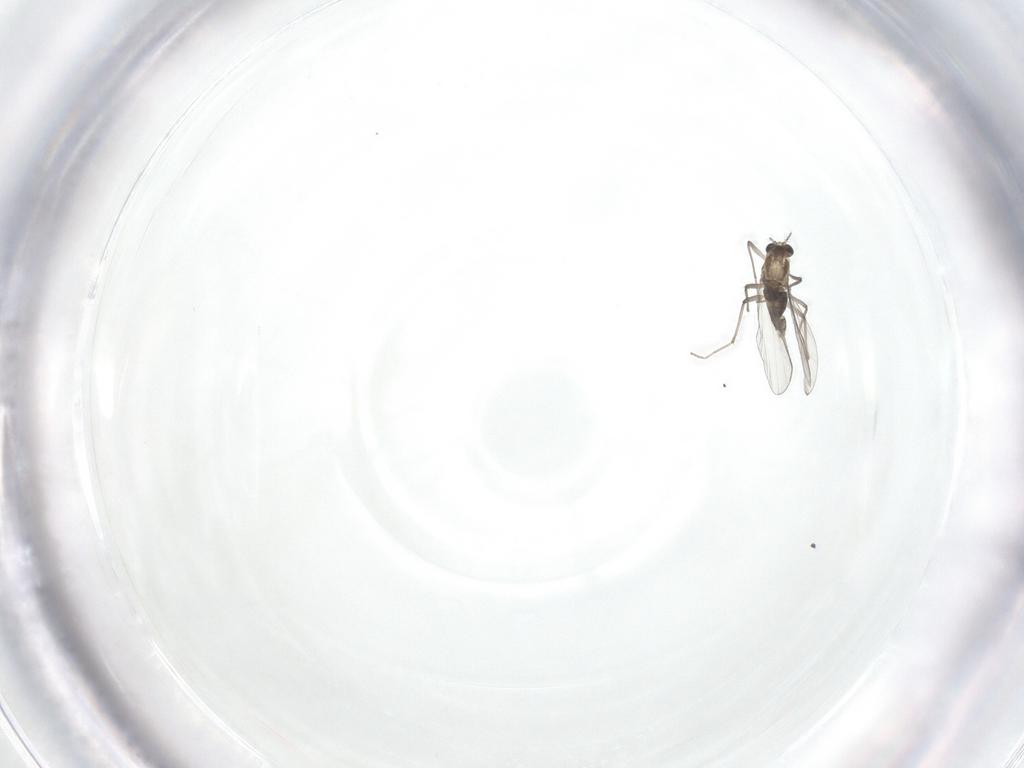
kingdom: Animalia
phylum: Arthropoda
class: Insecta
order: Diptera
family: Chironomidae
